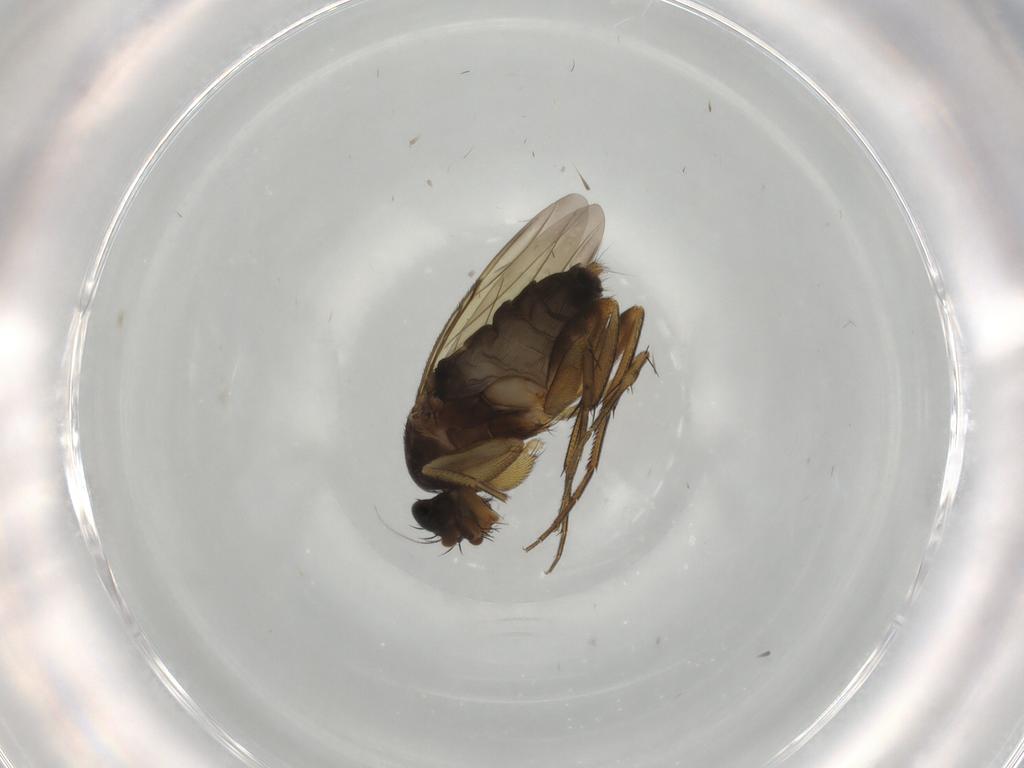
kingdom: Animalia
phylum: Arthropoda
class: Insecta
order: Diptera
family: Phoridae
